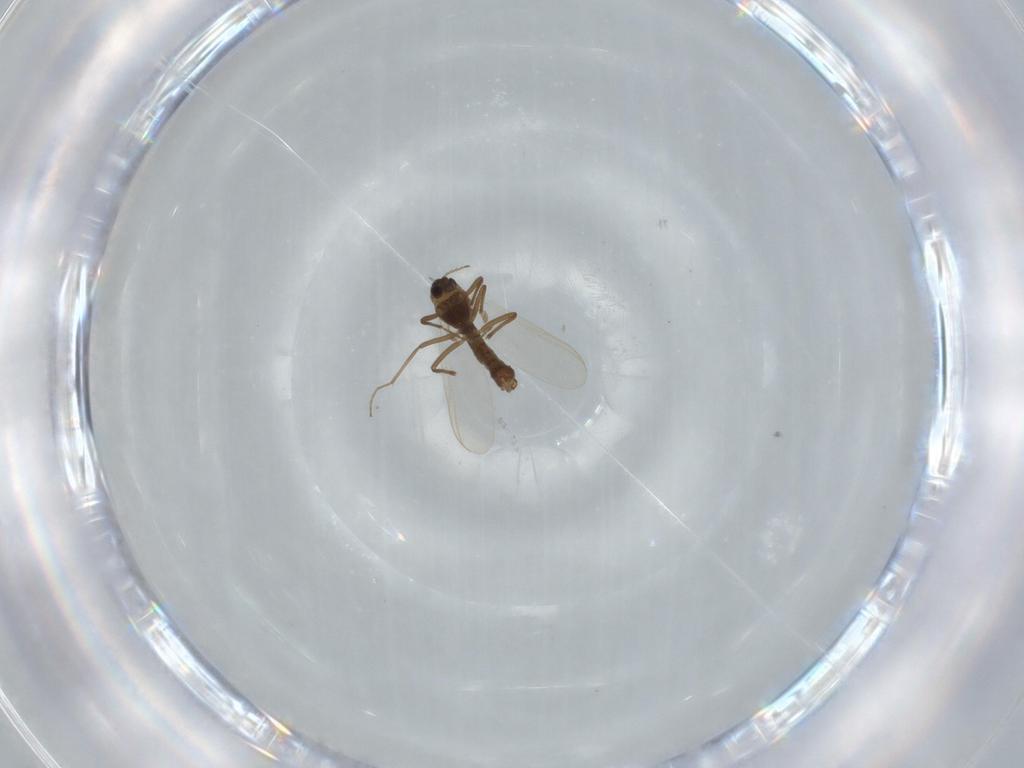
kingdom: Animalia
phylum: Arthropoda
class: Insecta
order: Diptera
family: Chironomidae
